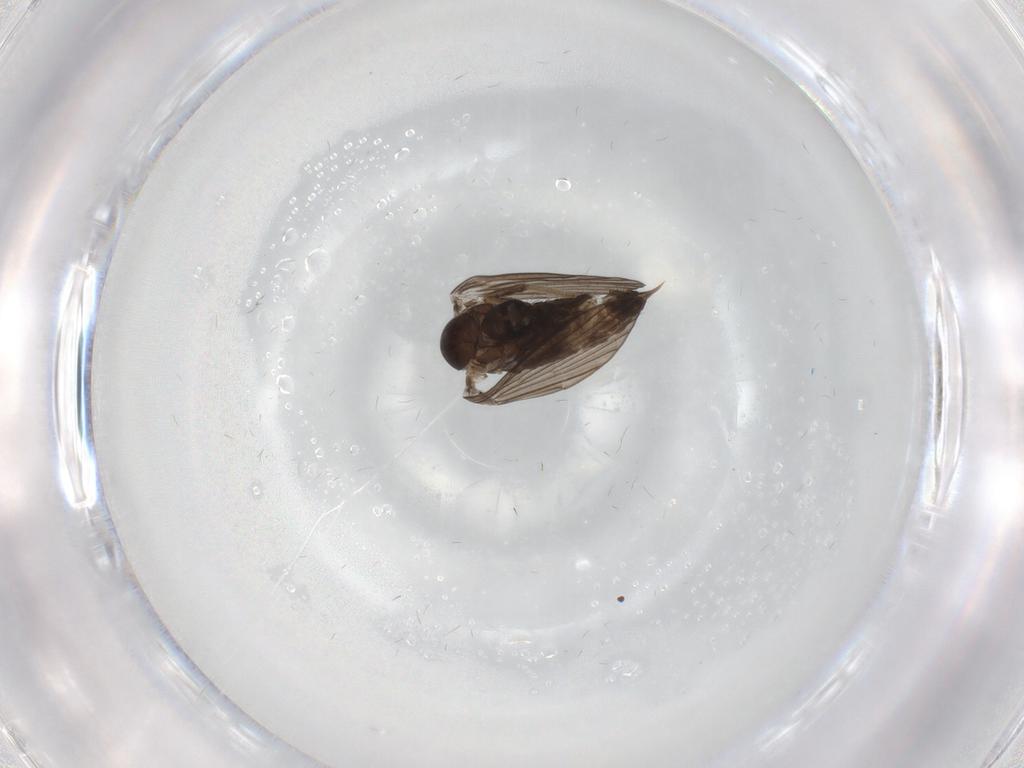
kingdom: Animalia
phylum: Arthropoda
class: Insecta
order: Diptera
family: Psychodidae
